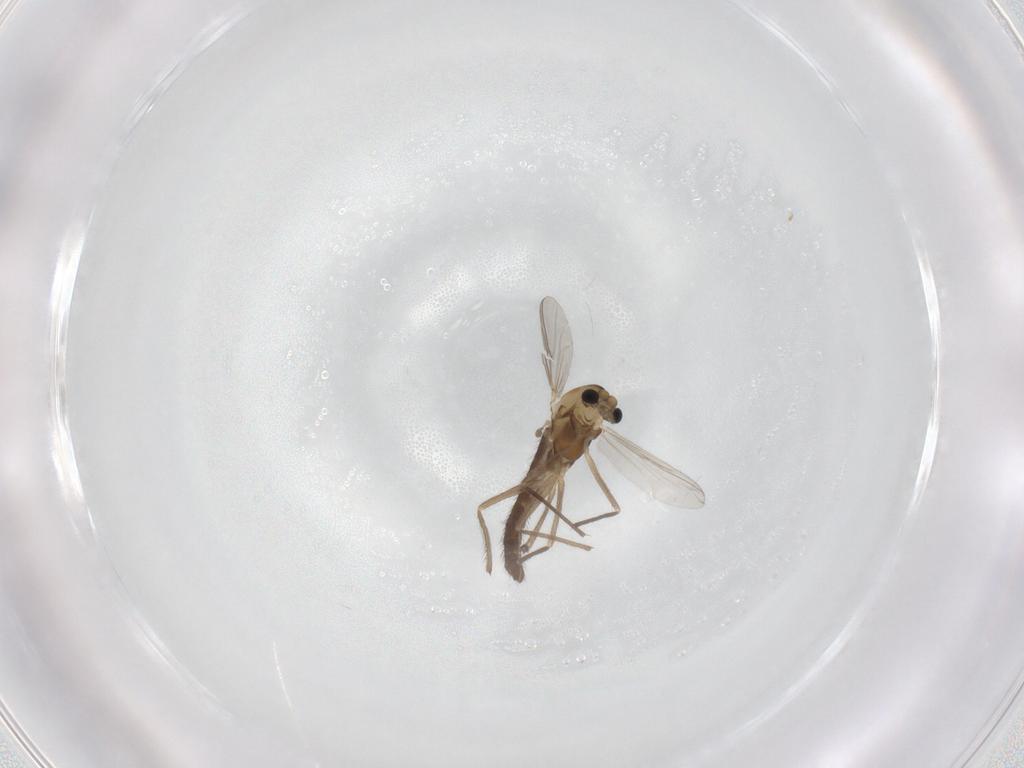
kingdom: Animalia
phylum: Arthropoda
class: Insecta
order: Diptera
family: Chironomidae
